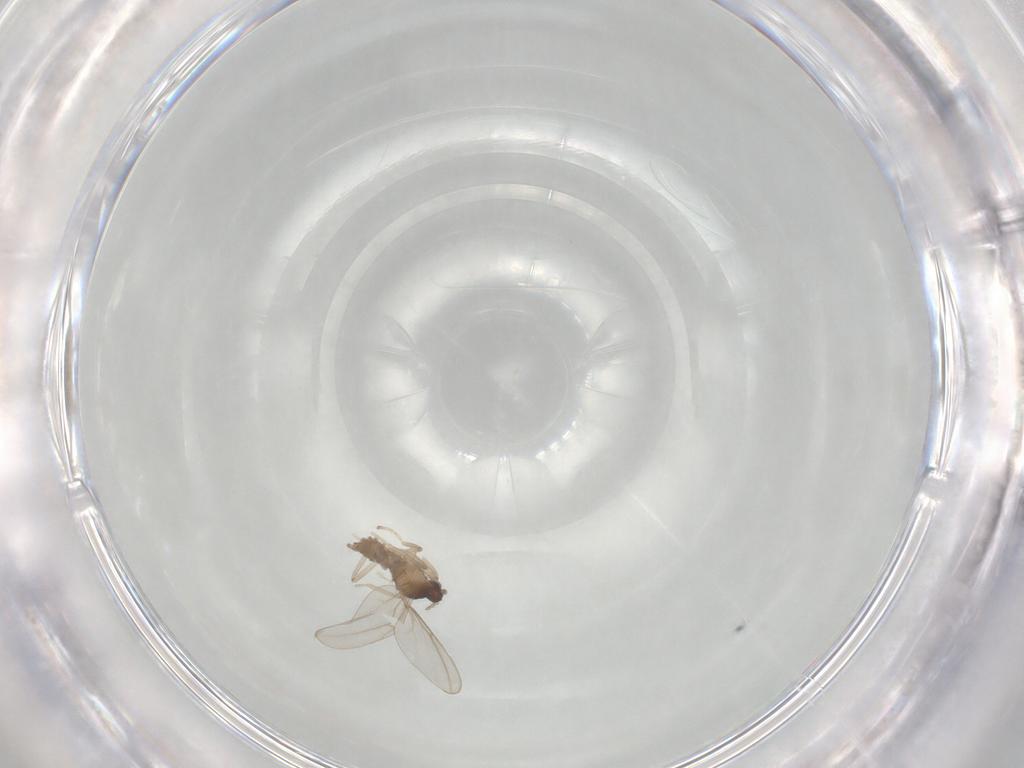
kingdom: Animalia
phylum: Arthropoda
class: Insecta
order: Diptera
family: Cecidomyiidae
